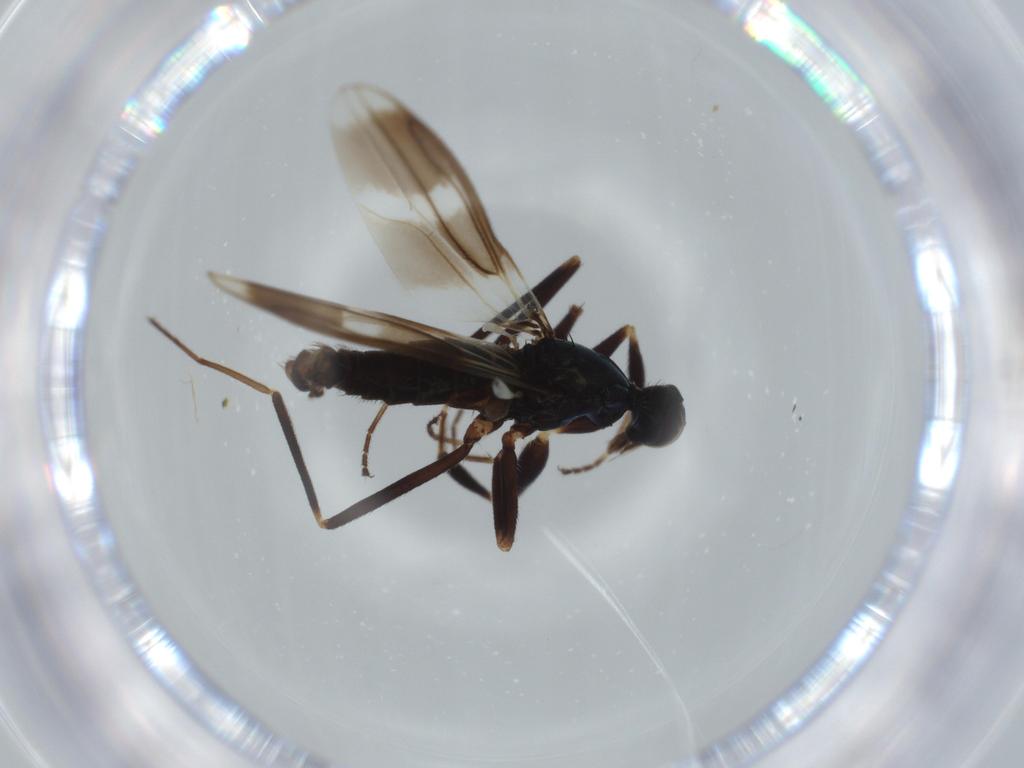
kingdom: Animalia
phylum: Arthropoda
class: Insecta
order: Diptera
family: Hybotidae
